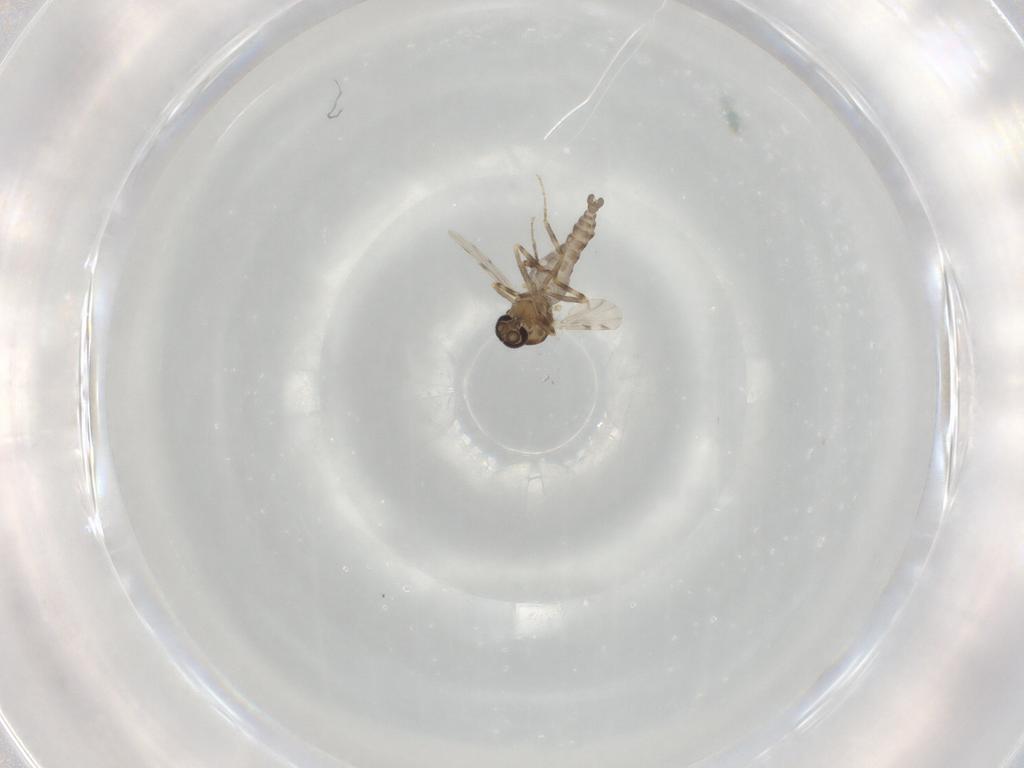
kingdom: Animalia
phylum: Arthropoda
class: Insecta
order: Diptera
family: Ceratopogonidae
